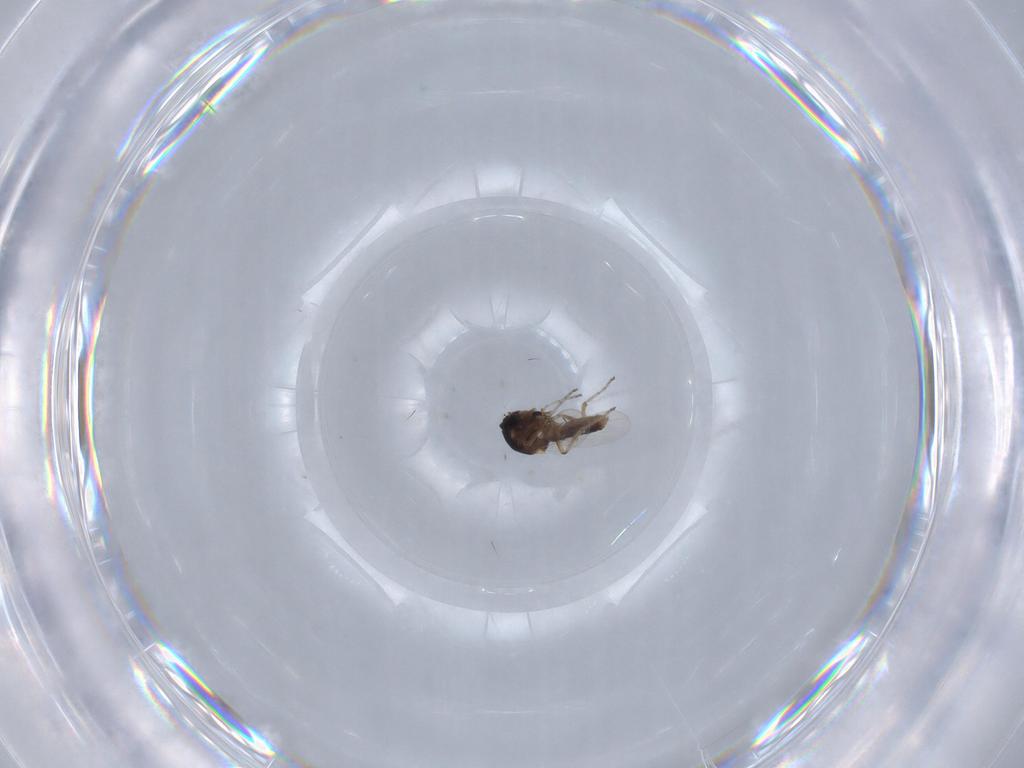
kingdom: Animalia
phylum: Arthropoda
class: Insecta
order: Diptera
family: Ceratopogonidae
